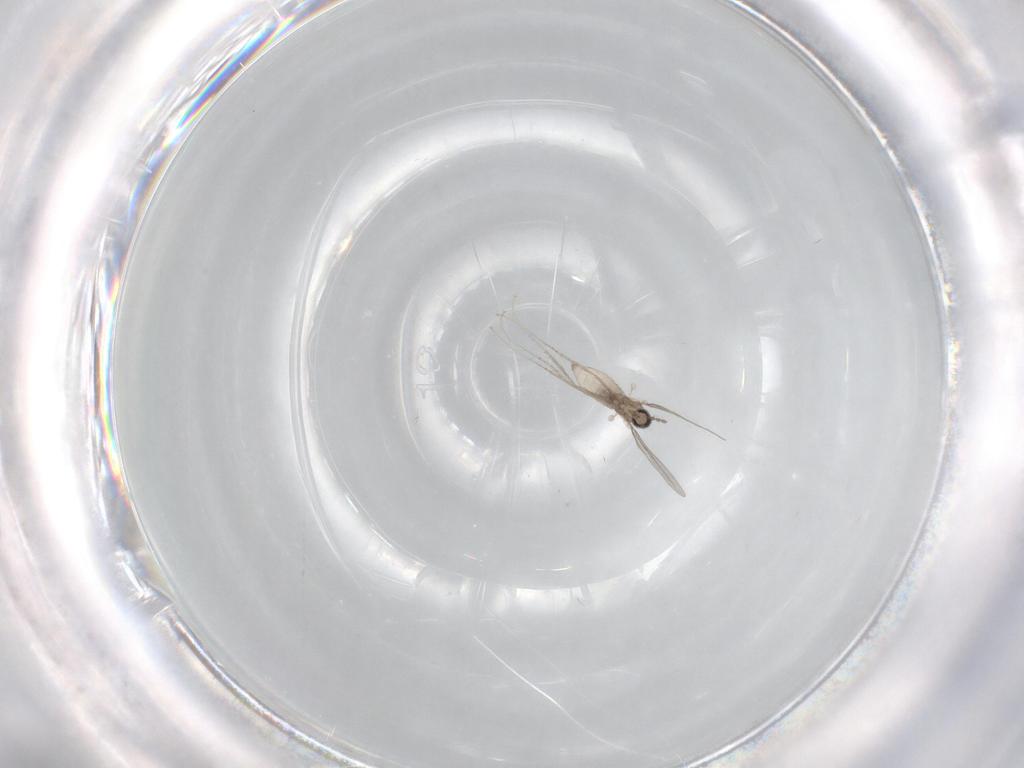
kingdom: Animalia
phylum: Arthropoda
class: Insecta
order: Diptera
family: Cecidomyiidae
